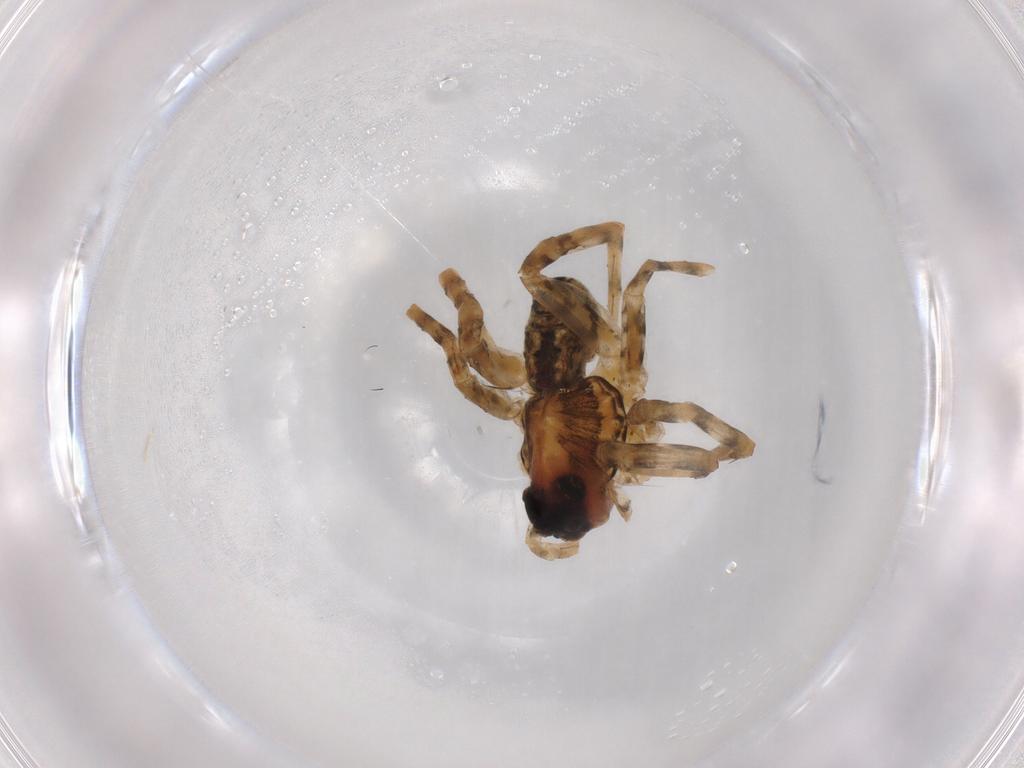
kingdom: Animalia
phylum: Arthropoda
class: Arachnida
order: Araneae
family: Lycosidae
